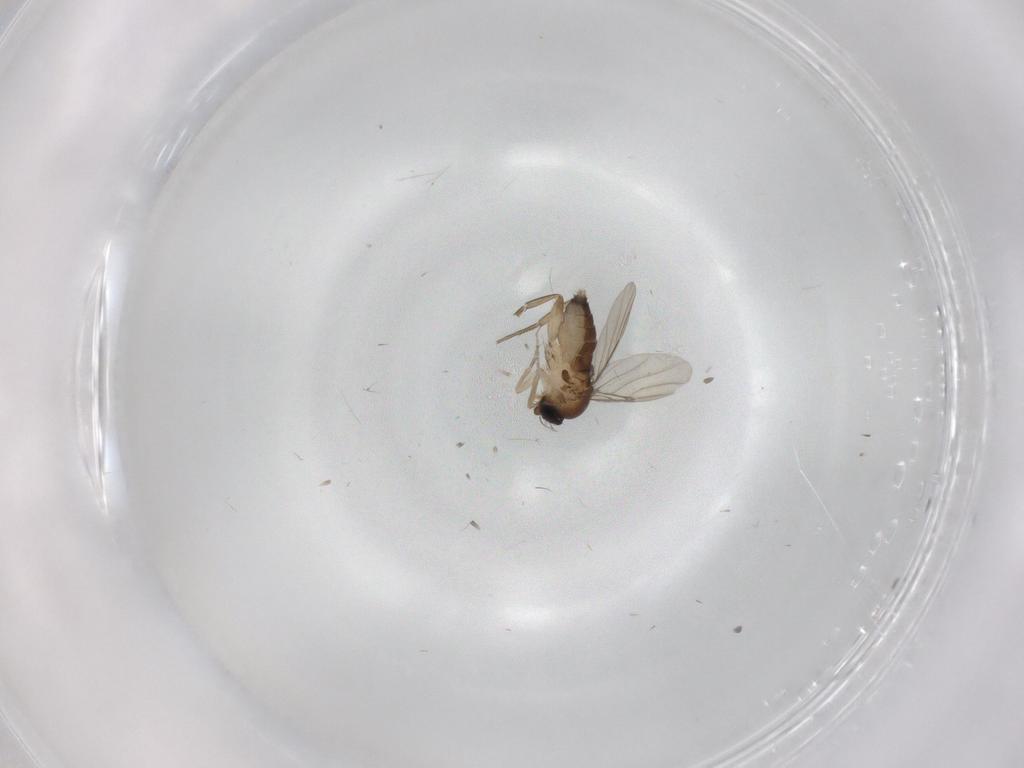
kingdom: Animalia
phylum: Arthropoda
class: Insecta
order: Diptera
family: Phoridae
